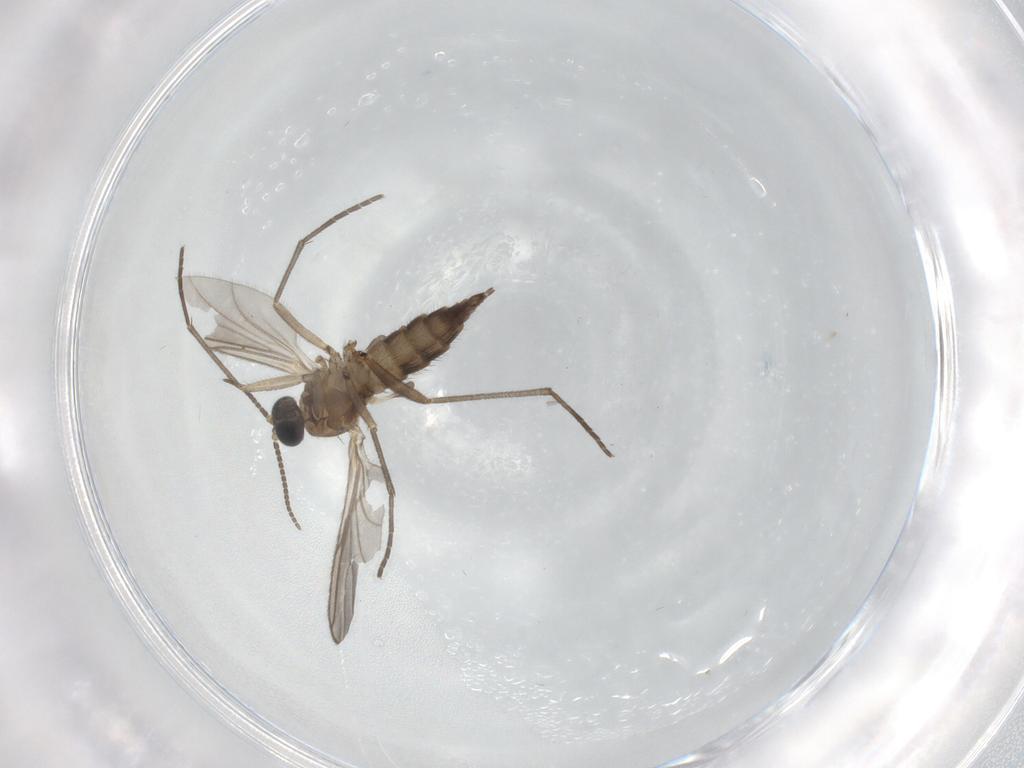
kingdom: Animalia
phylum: Arthropoda
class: Insecta
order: Diptera
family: Sciaridae
